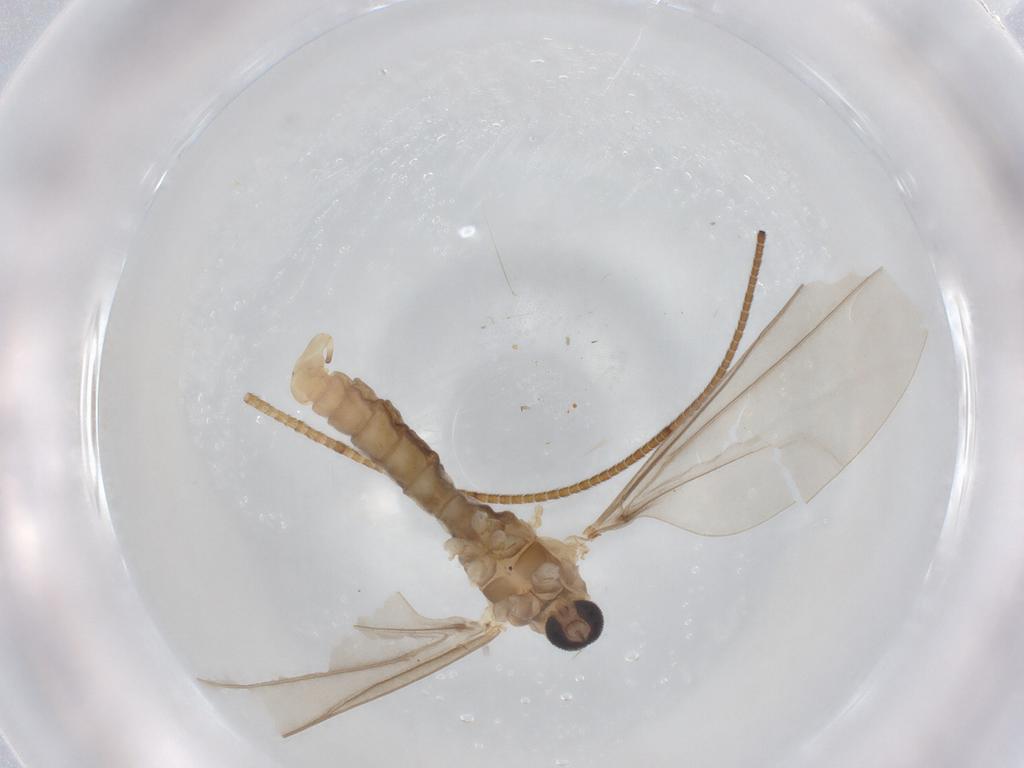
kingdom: Animalia
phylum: Arthropoda
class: Insecta
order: Diptera
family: Cecidomyiidae
